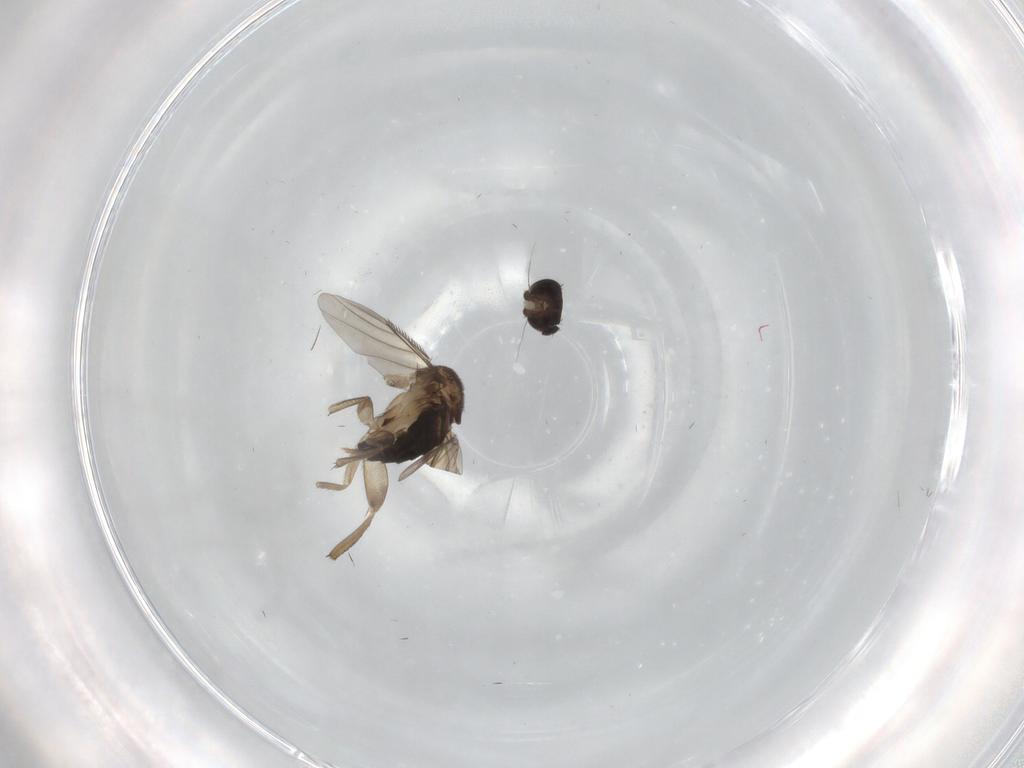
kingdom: Animalia
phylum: Arthropoda
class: Insecta
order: Diptera
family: Phoridae
